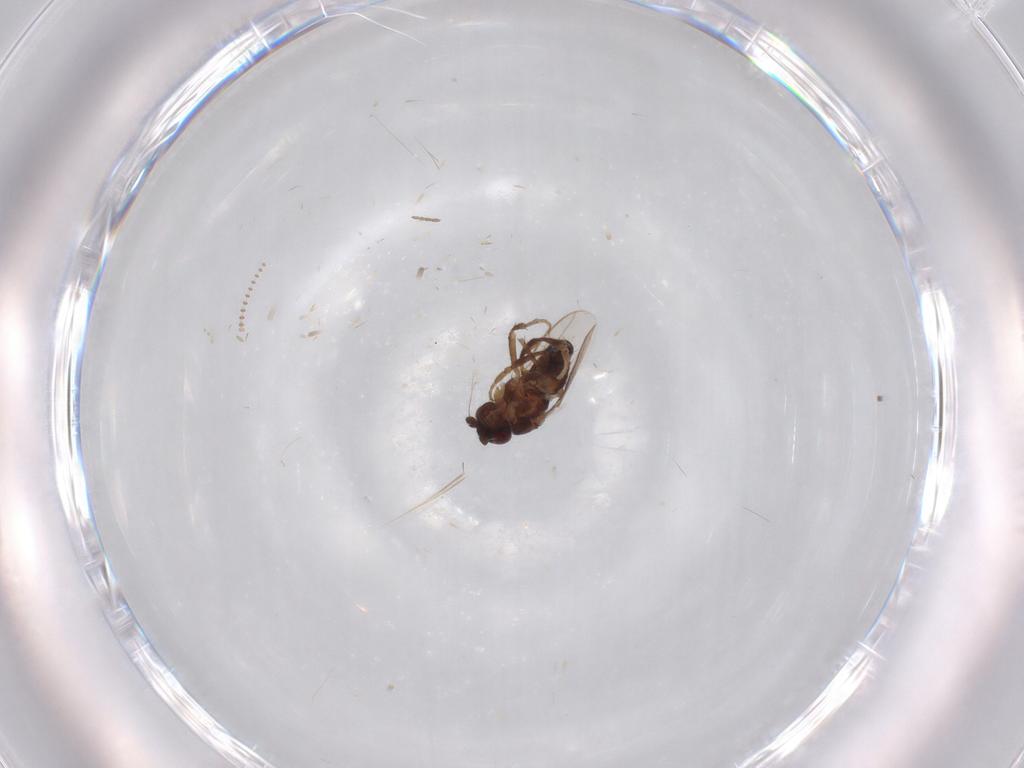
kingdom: Animalia
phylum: Arthropoda
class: Insecta
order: Diptera
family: Sphaeroceridae
